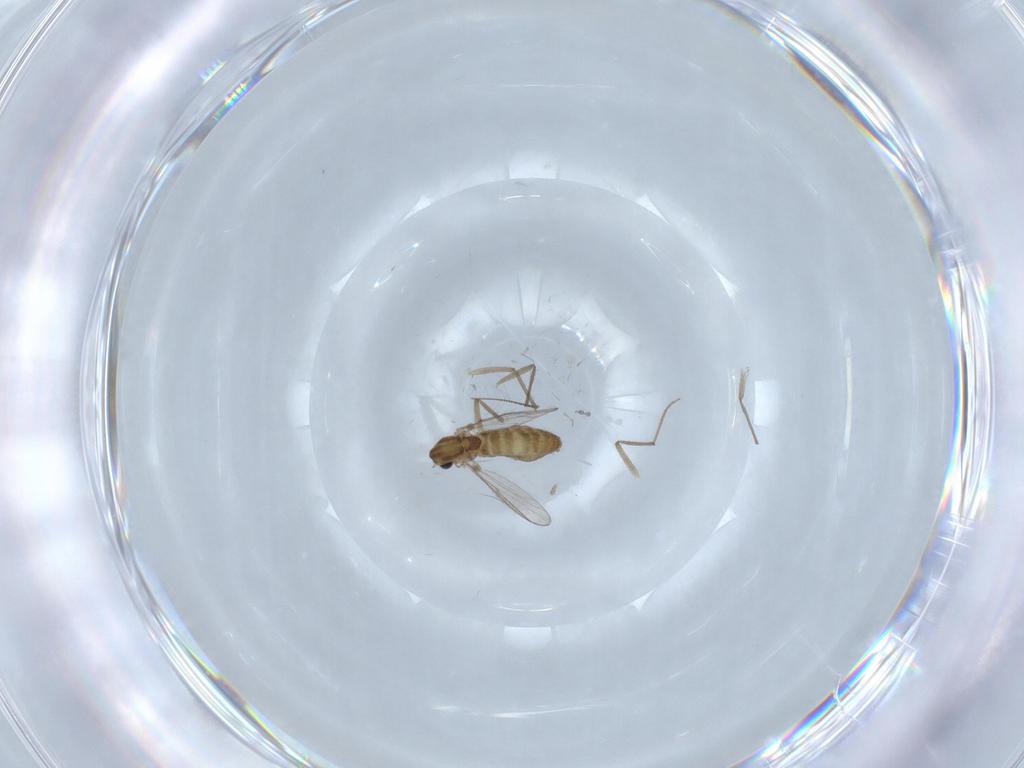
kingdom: Animalia
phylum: Arthropoda
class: Insecta
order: Diptera
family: Chironomidae
